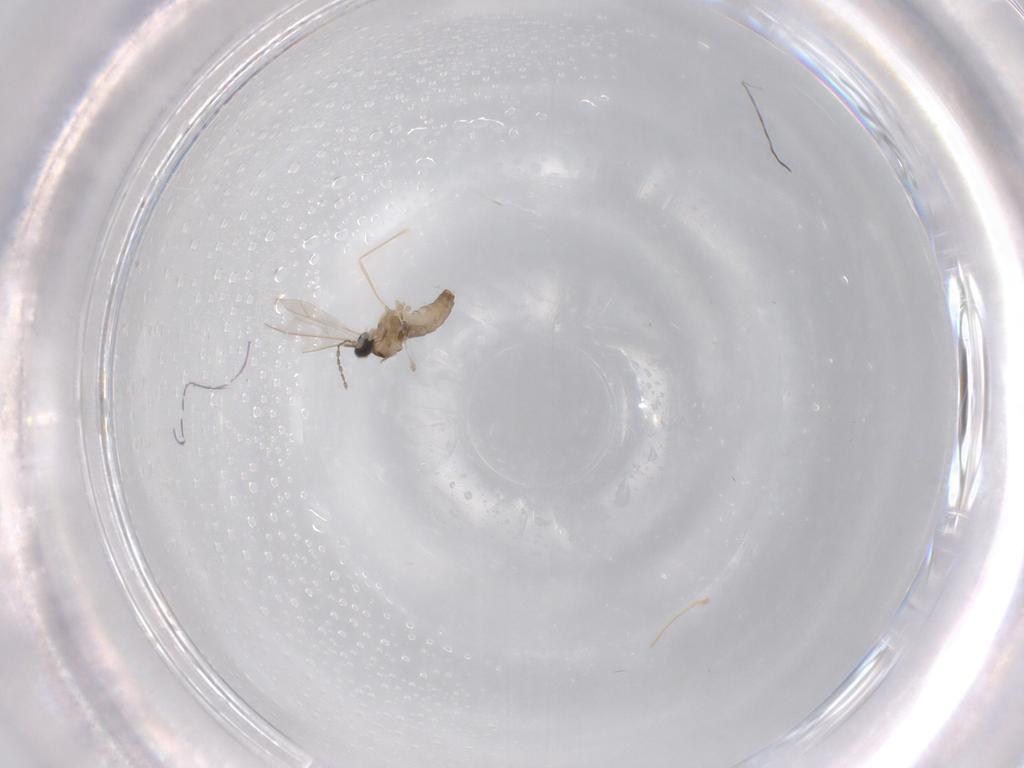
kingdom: Animalia
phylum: Arthropoda
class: Insecta
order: Diptera
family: Cecidomyiidae
